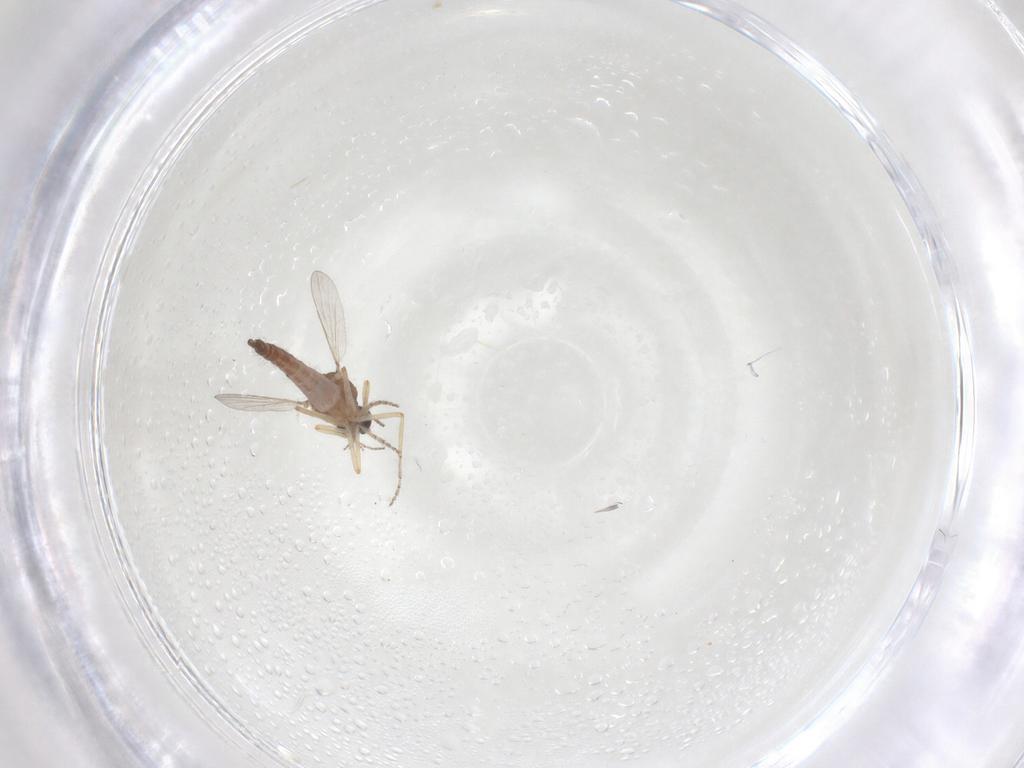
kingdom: Animalia
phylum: Arthropoda
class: Insecta
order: Diptera
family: Ceratopogonidae
